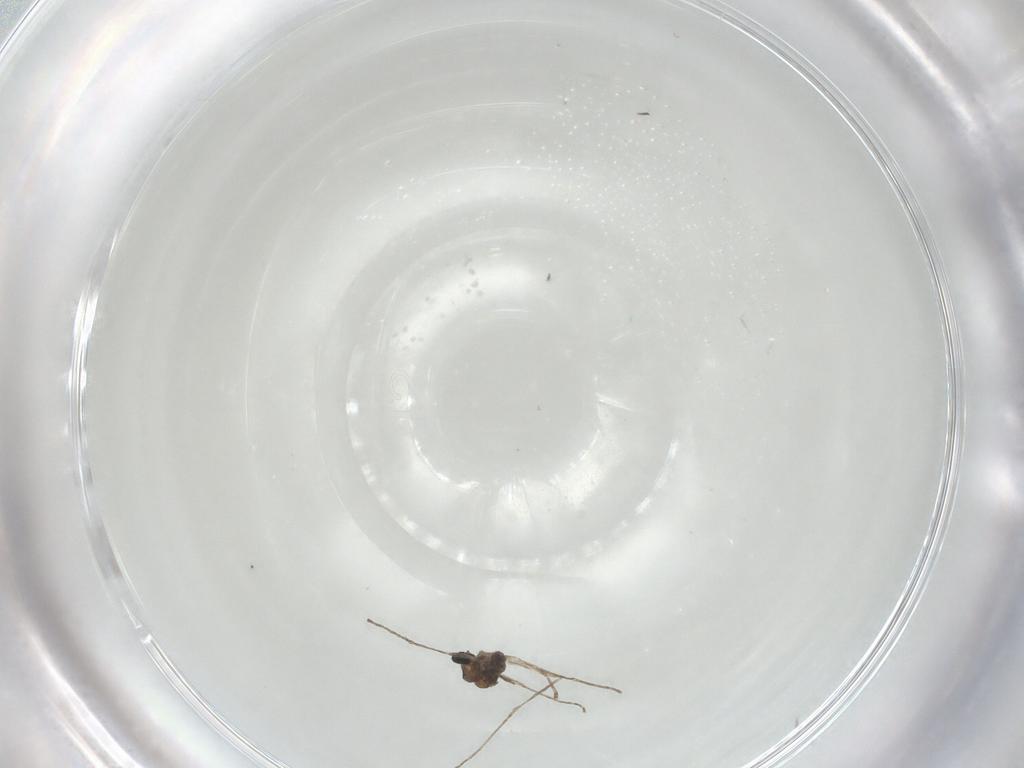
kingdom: Animalia
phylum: Arthropoda
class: Insecta
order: Diptera
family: Cecidomyiidae
